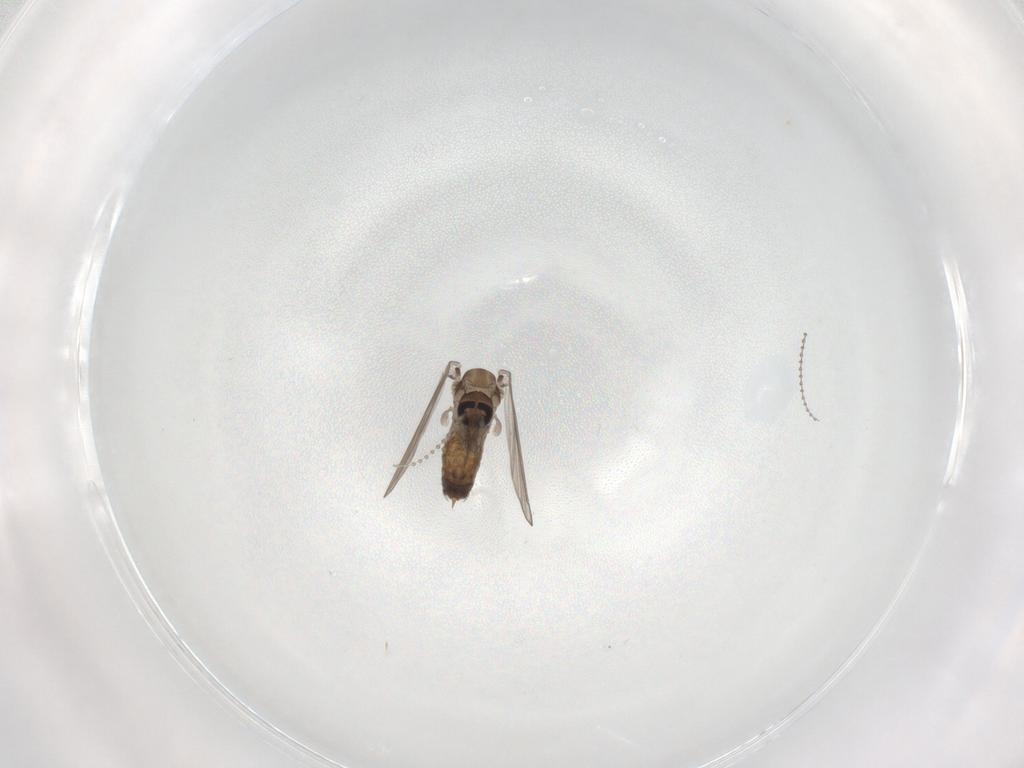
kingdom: Animalia
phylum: Arthropoda
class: Insecta
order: Diptera
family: Psychodidae
